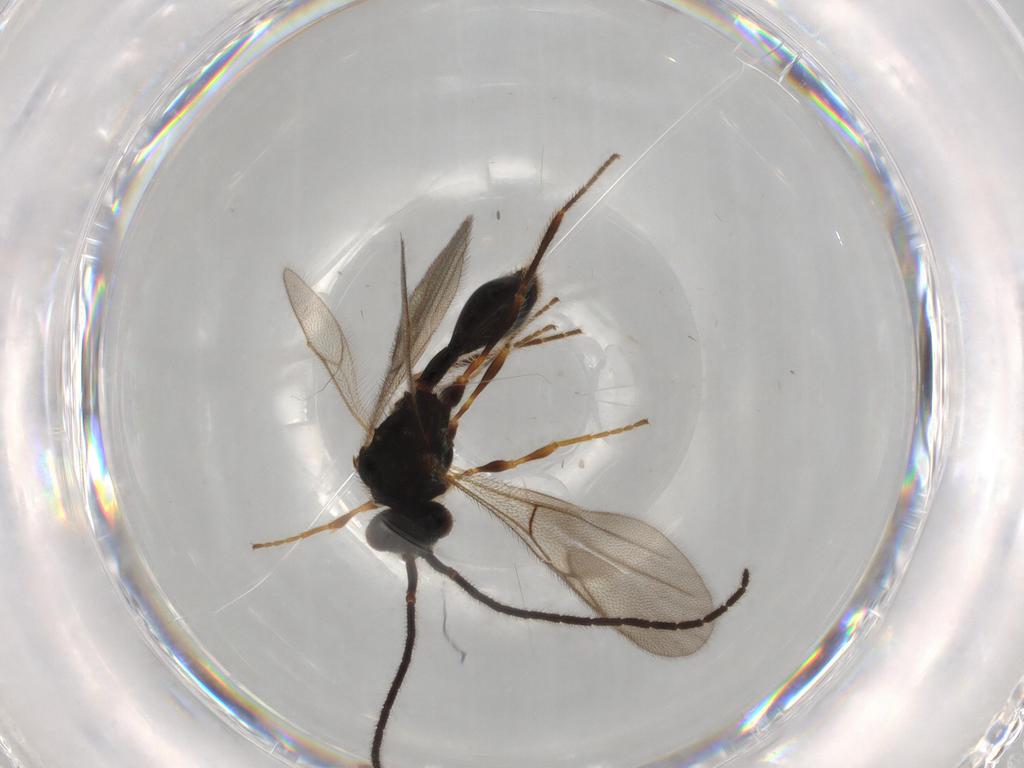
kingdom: Animalia
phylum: Arthropoda
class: Insecta
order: Hymenoptera
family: Diapriidae
